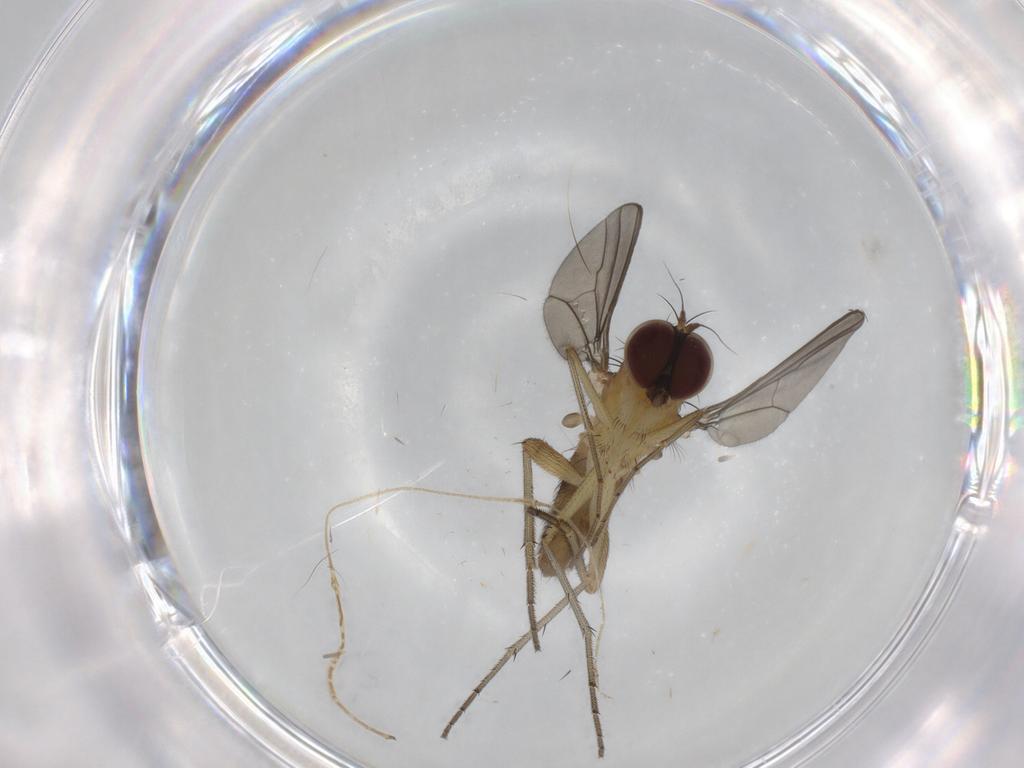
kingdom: Animalia
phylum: Arthropoda
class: Insecta
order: Diptera
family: Dolichopodidae
